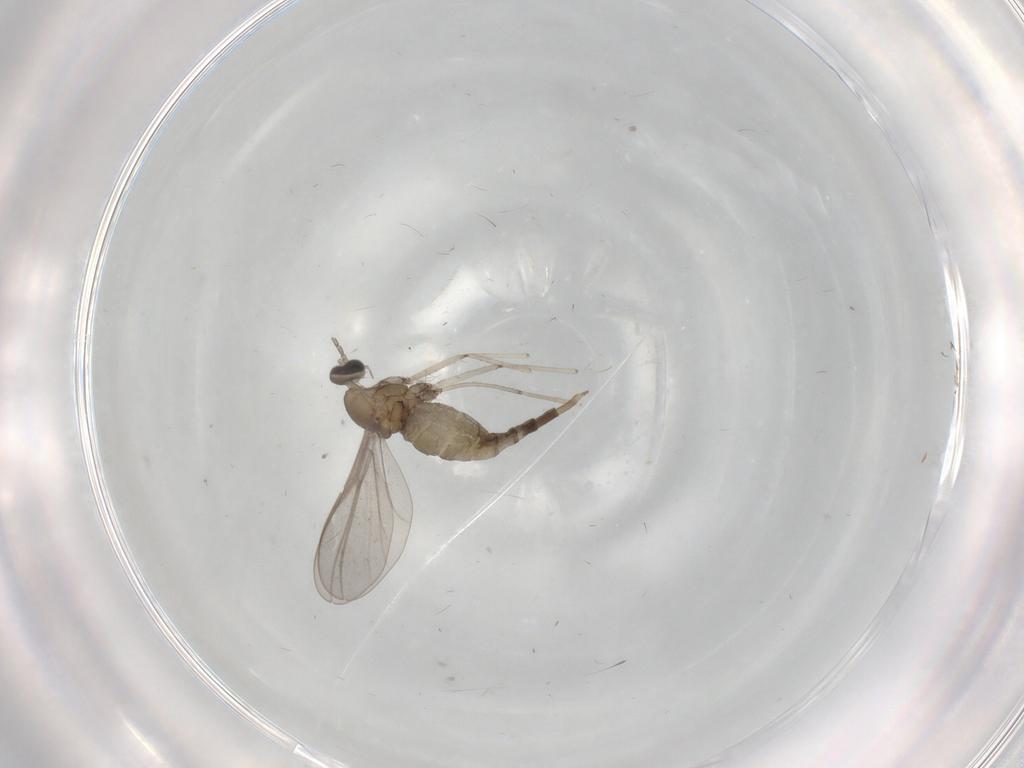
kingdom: Animalia
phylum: Arthropoda
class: Insecta
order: Diptera
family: Cecidomyiidae
